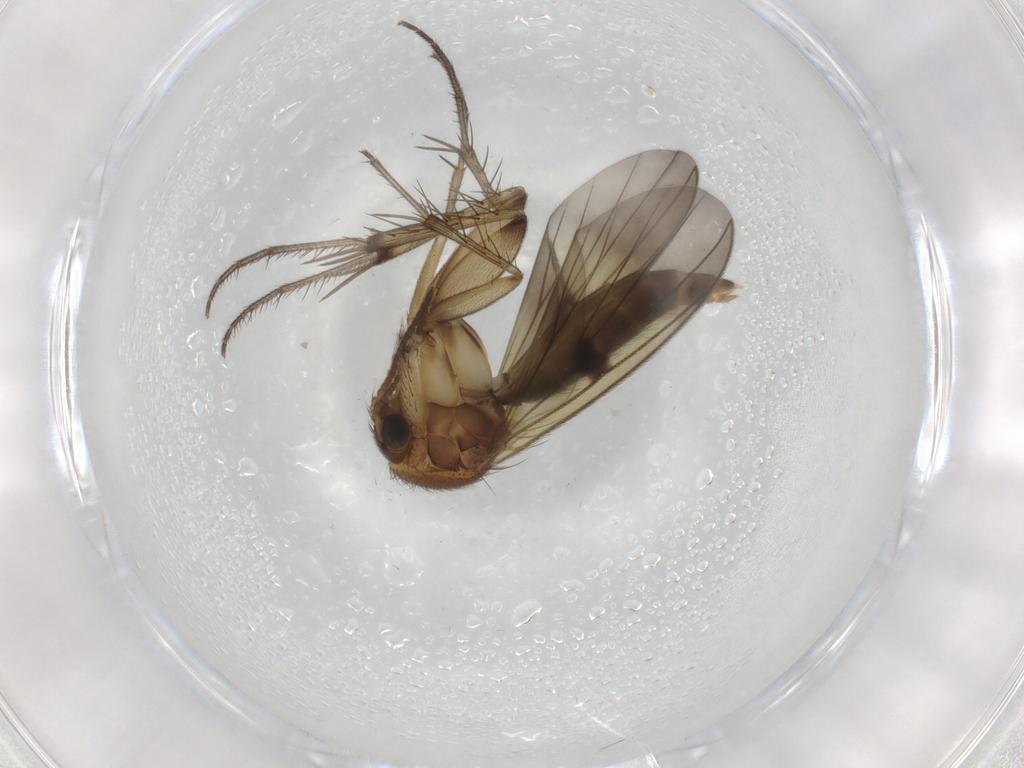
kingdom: Animalia
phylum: Arthropoda
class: Insecta
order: Diptera
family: Mycetophilidae
